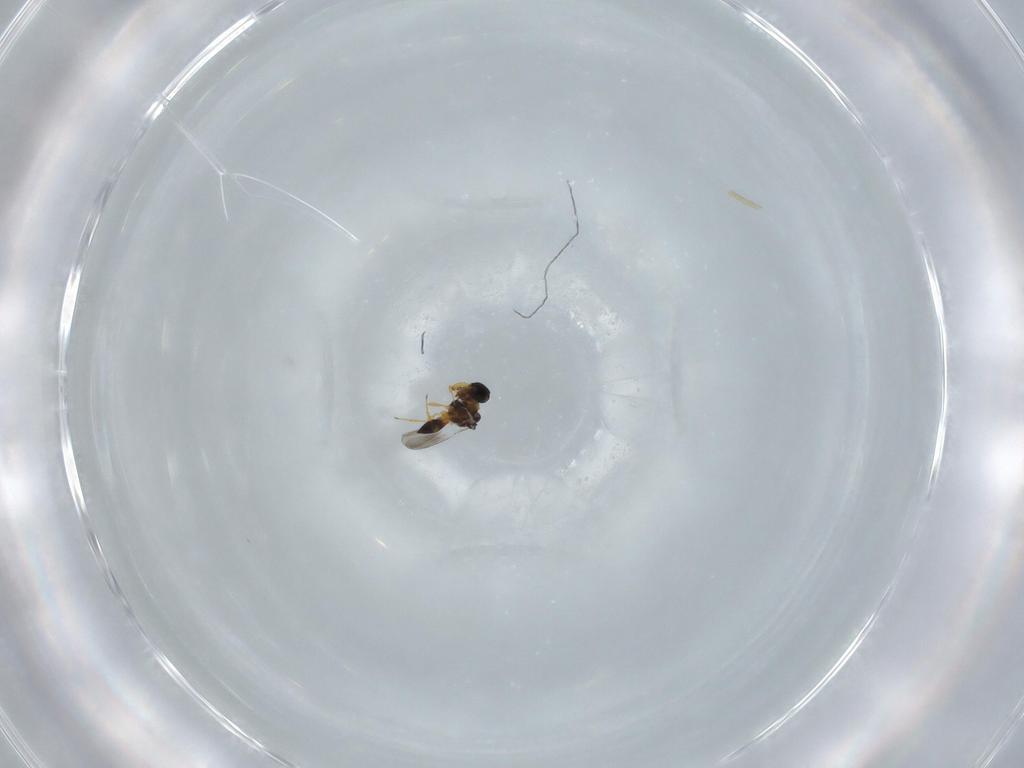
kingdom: Animalia
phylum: Arthropoda
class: Insecta
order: Hymenoptera
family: Platygastridae
